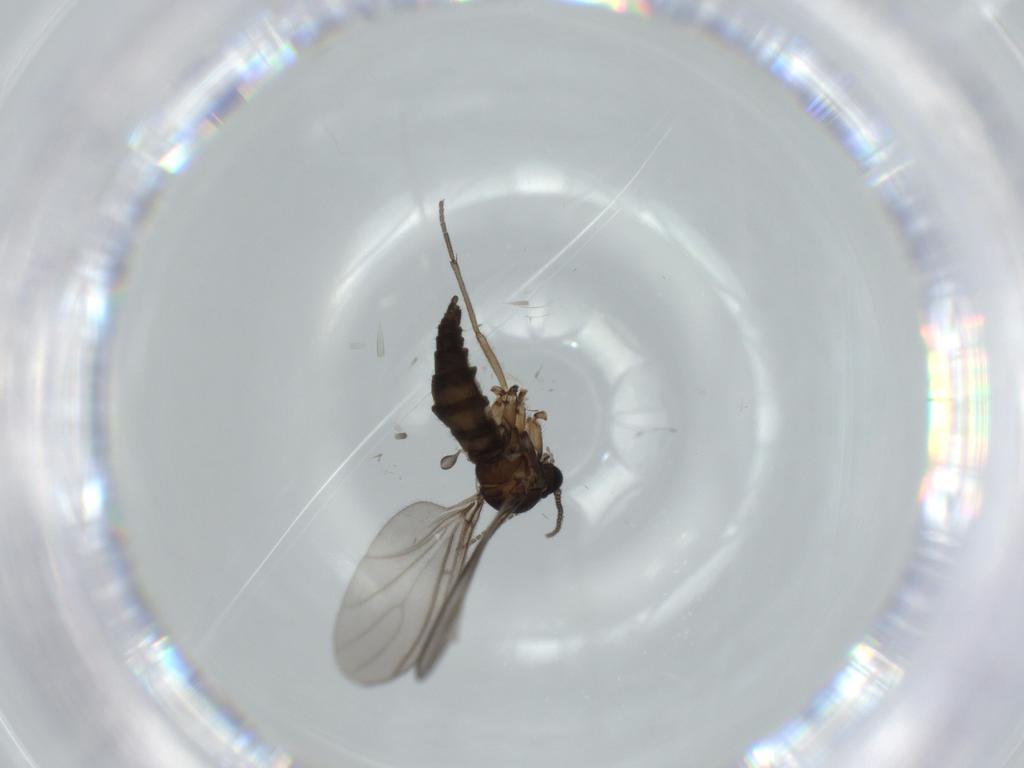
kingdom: Animalia
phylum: Arthropoda
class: Insecta
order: Diptera
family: Sciaridae
